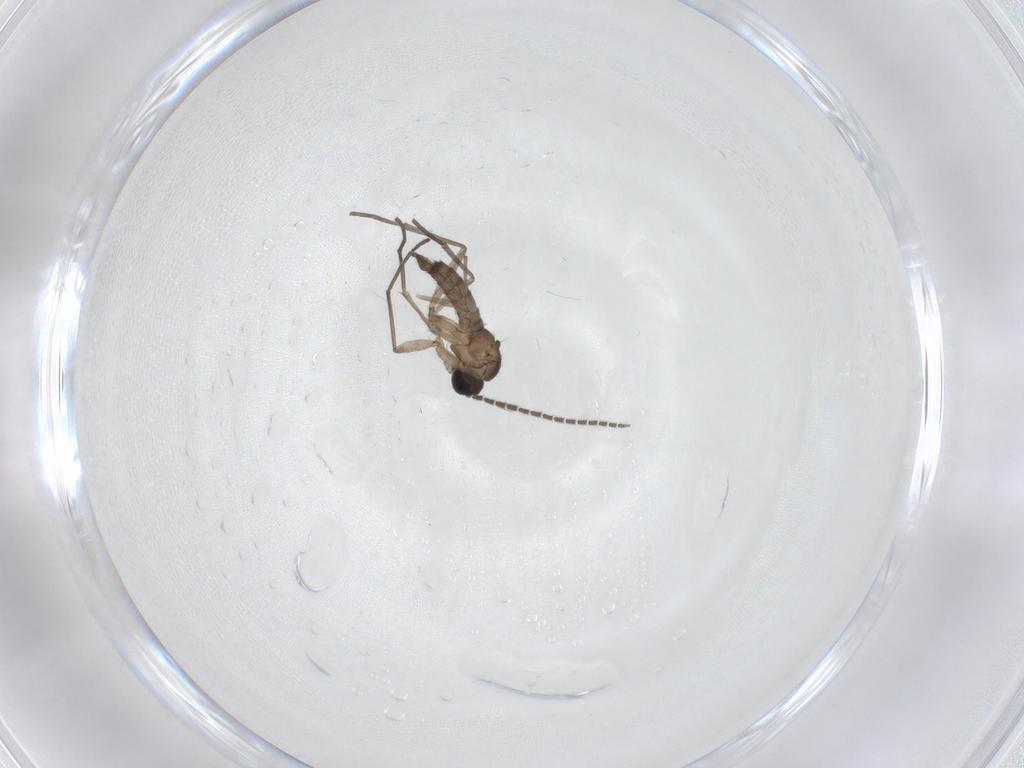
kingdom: Animalia
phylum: Arthropoda
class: Insecta
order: Diptera
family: Sciaridae
